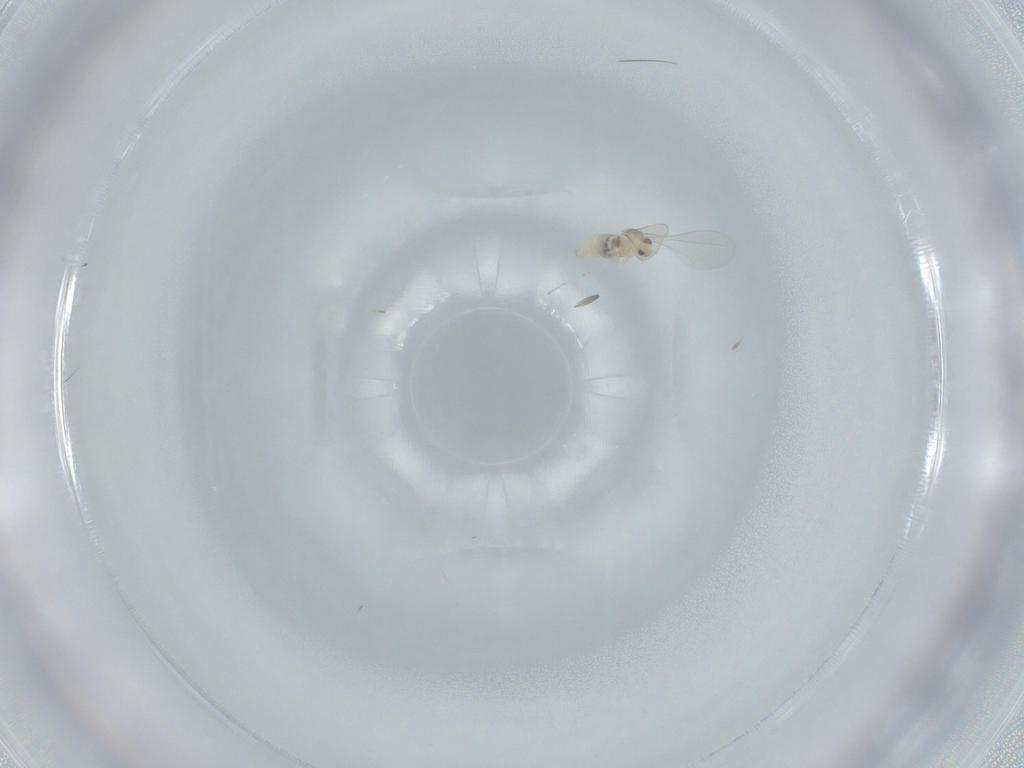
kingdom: Animalia
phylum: Arthropoda
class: Insecta
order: Diptera
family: Cecidomyiidae
